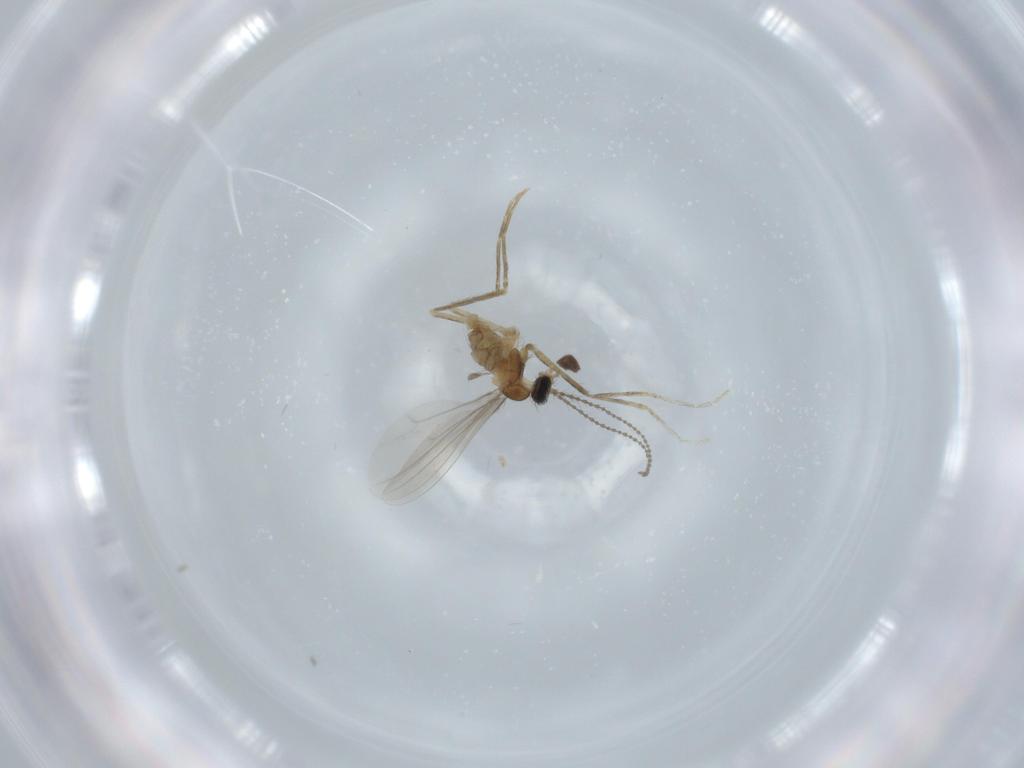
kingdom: Animalia
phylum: Arthropoda
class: Insecta
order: Diptera
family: Cecidomyiidae
